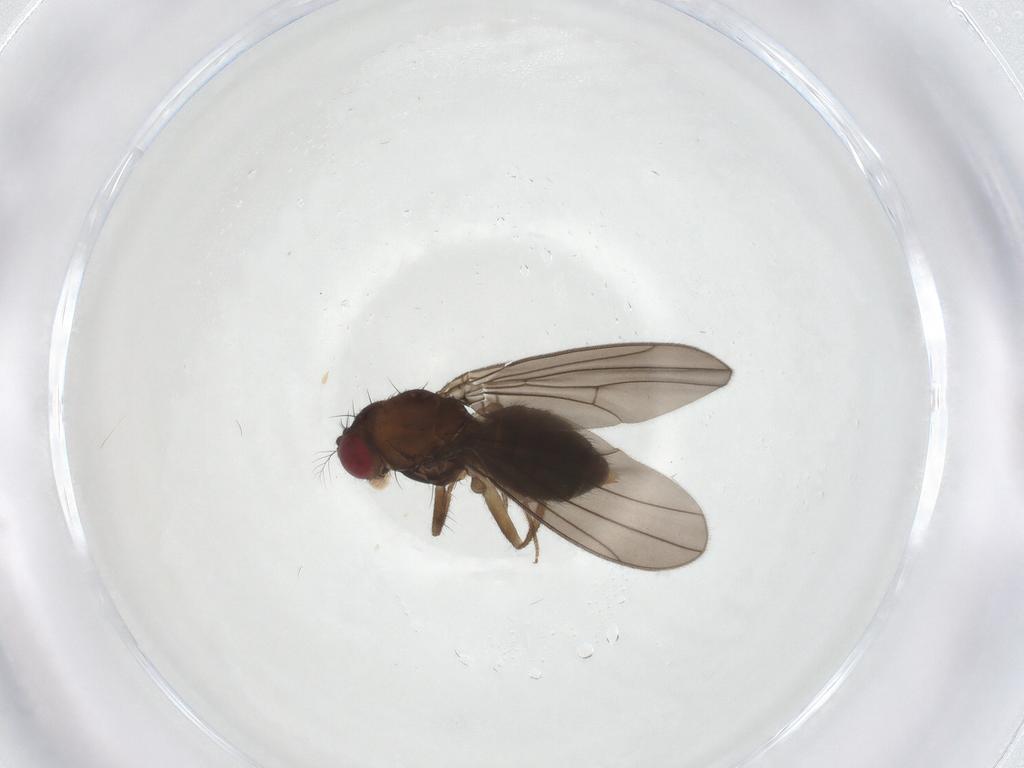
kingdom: Animalia
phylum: Arthropoda
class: Insecta
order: Diptera
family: Drosophilidae
